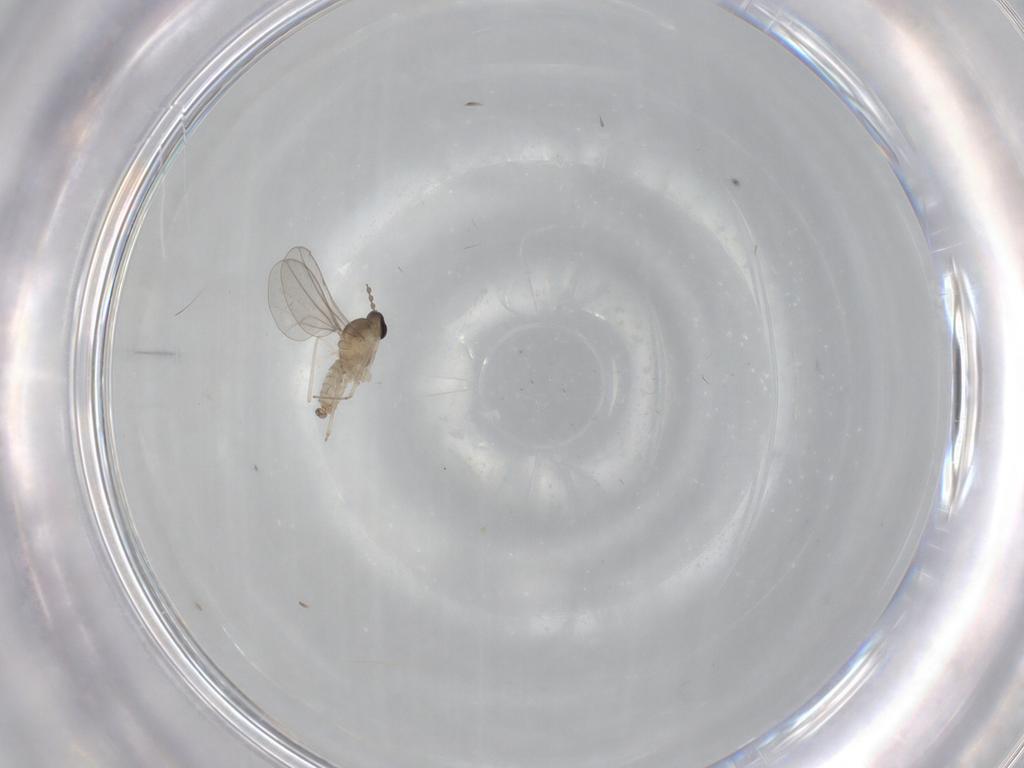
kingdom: Animalia
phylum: Arthropoda
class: Insecta
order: Diptera
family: Cecidomyiidae
